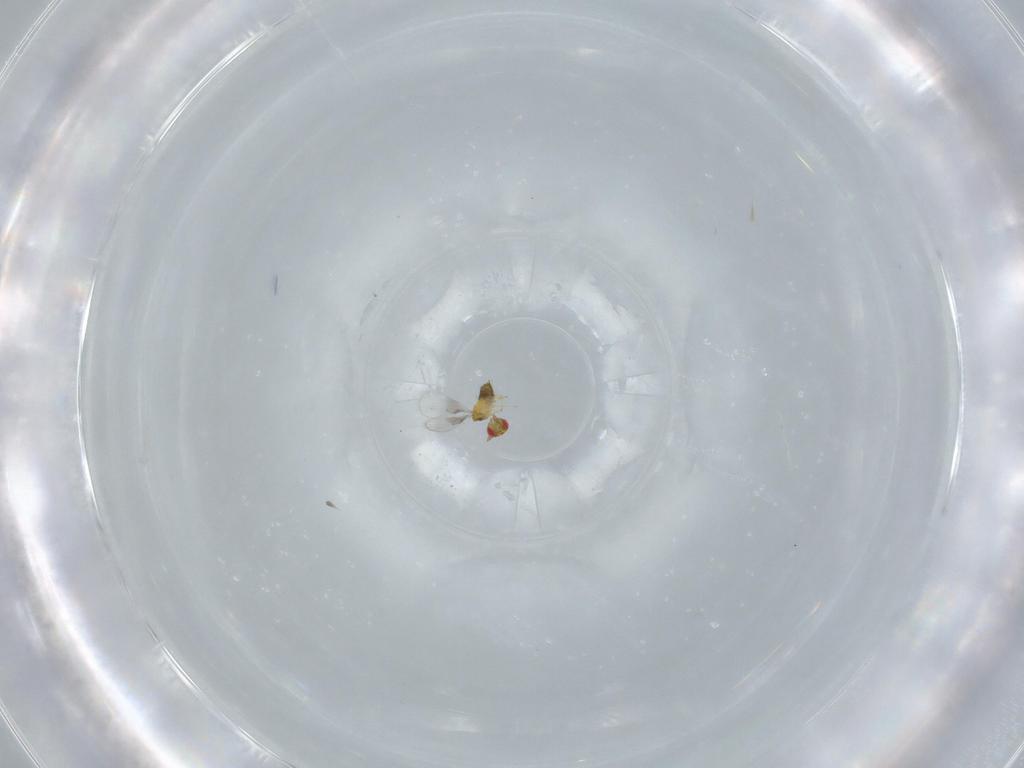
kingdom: Animalia
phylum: Arthropoda
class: Insecta
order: Hymenoptera
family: Trichogrammatidae
